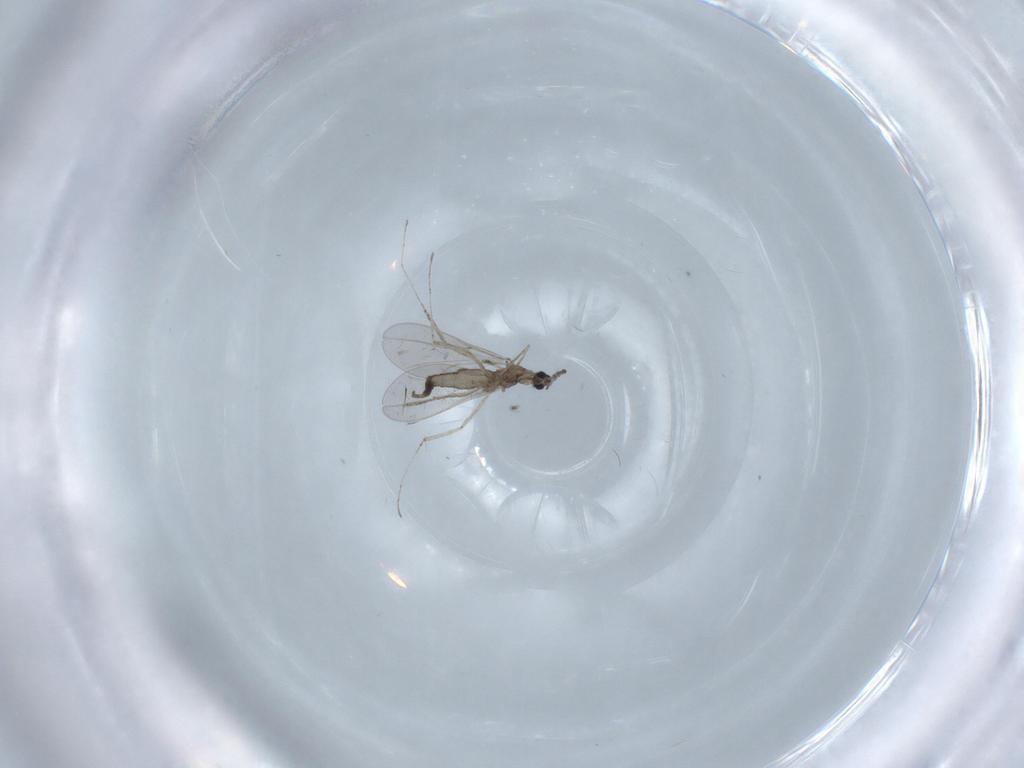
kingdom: Animalia
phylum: Arthropoda
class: Insecta
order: Diptera
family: Cecidomyiidae
